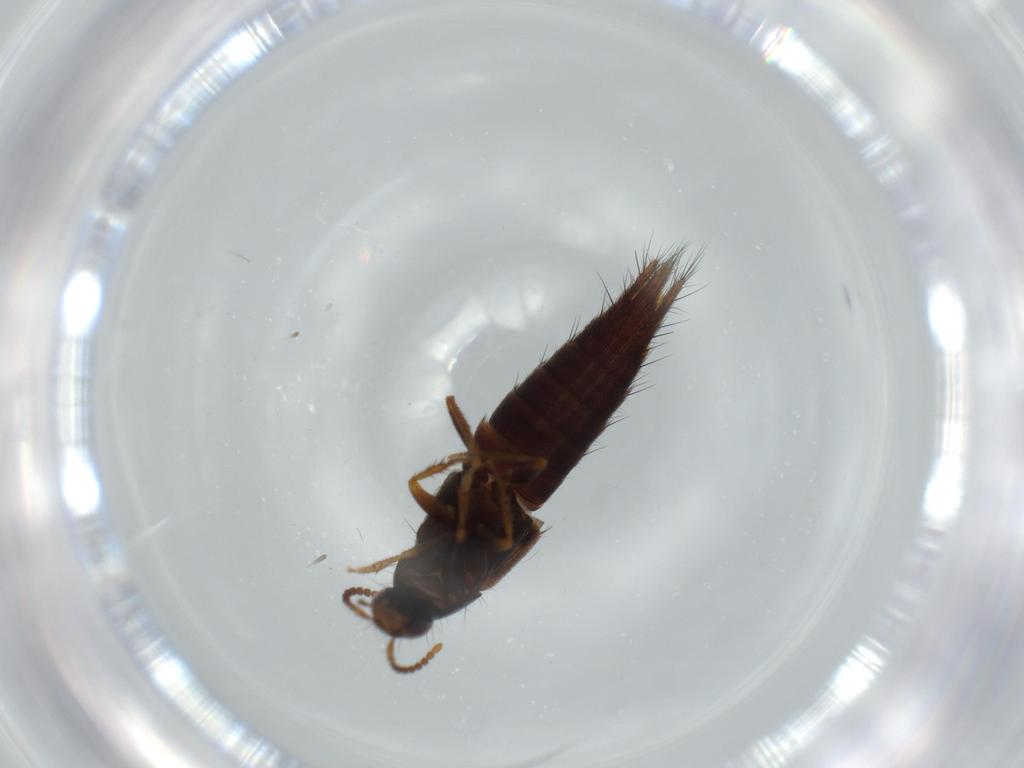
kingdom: Animalia
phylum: Arthropoda
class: Insecta
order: Coleoptera
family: Staphylinidae
